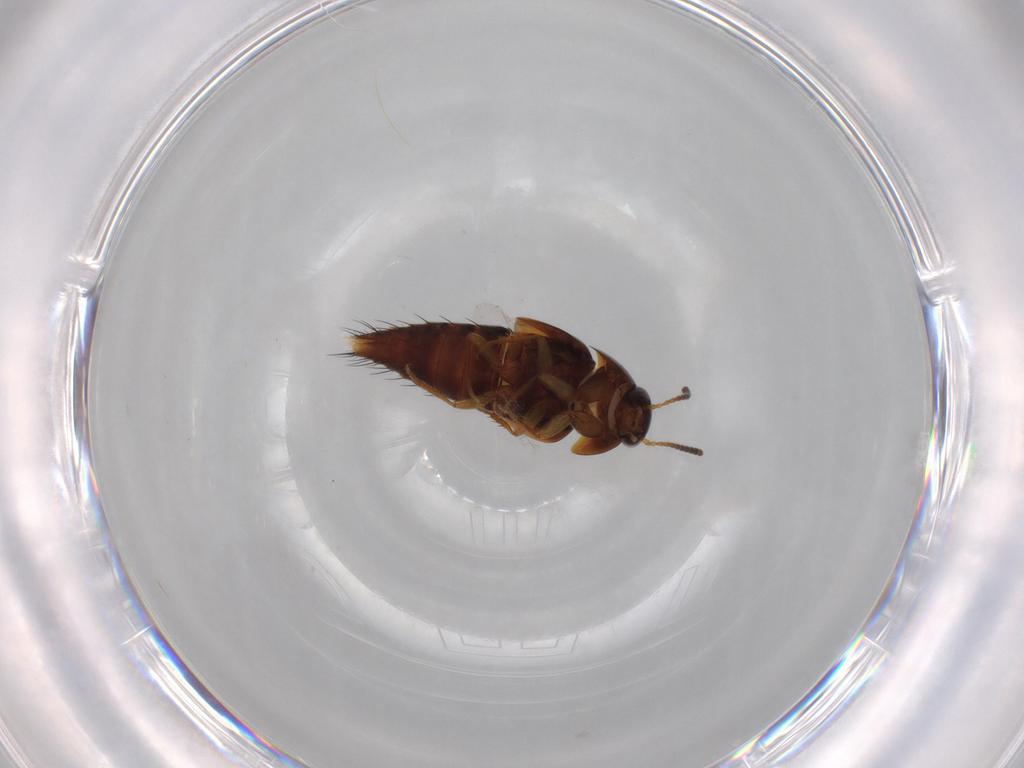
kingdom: Animalia
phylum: Arthropoda
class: Insecta
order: Coleoptera
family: Staphylinidae
